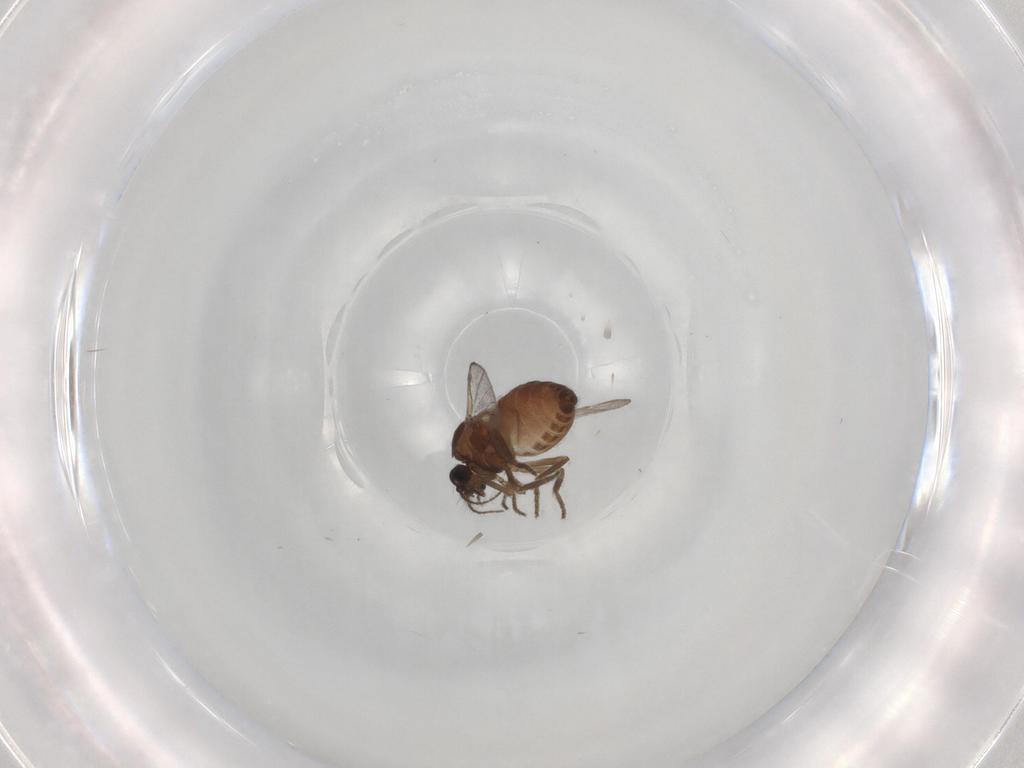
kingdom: Animalia
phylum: Arthropoda
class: Insecta
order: Diptera
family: Ceratopogonidae
